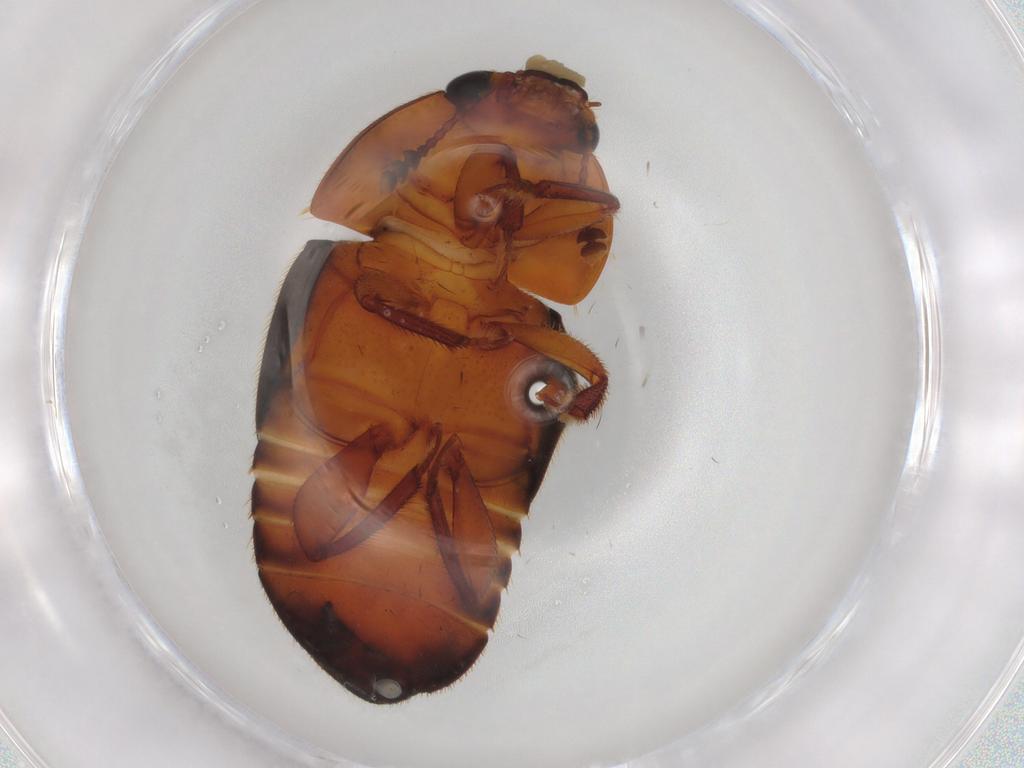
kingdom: Animalia
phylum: Arthropoda
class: Insecta
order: Coleoptera
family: Nitidulidae
